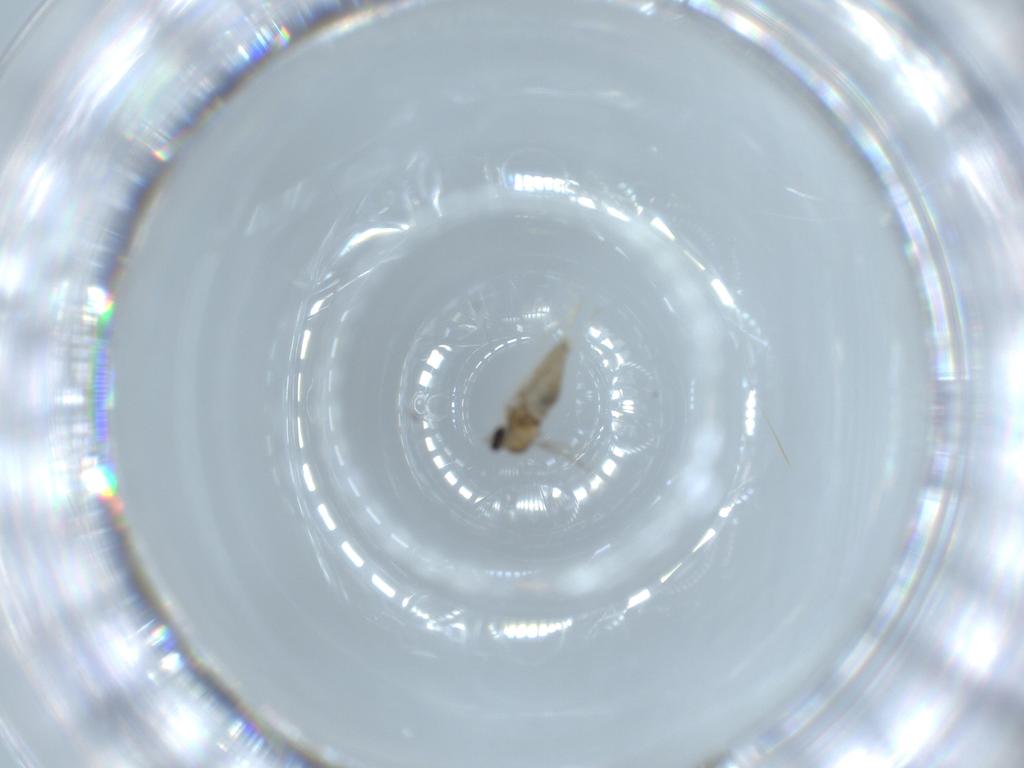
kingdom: Animalia
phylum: Arthropoda
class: Insecta
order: Diptera
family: Cecidomyiidae
